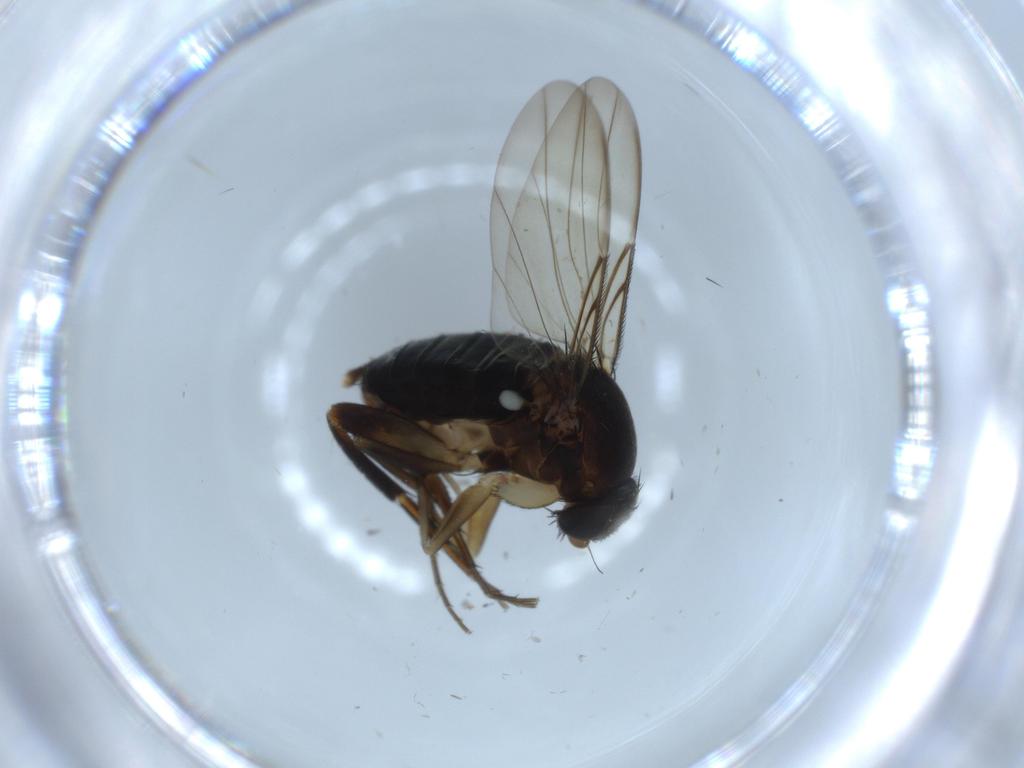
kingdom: Animalia
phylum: Arthropoda
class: Insecta
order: Diptera
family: Phoridae
